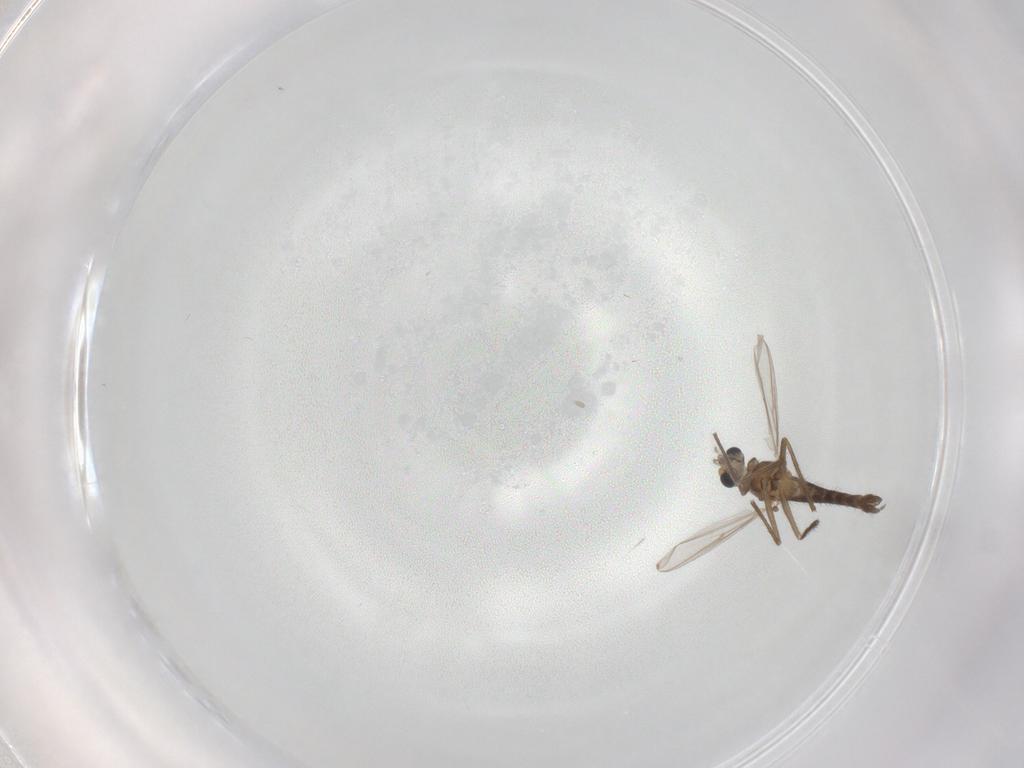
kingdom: Animalia
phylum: Arthropoda
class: Insecta
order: Diptera
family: Chironomidae
